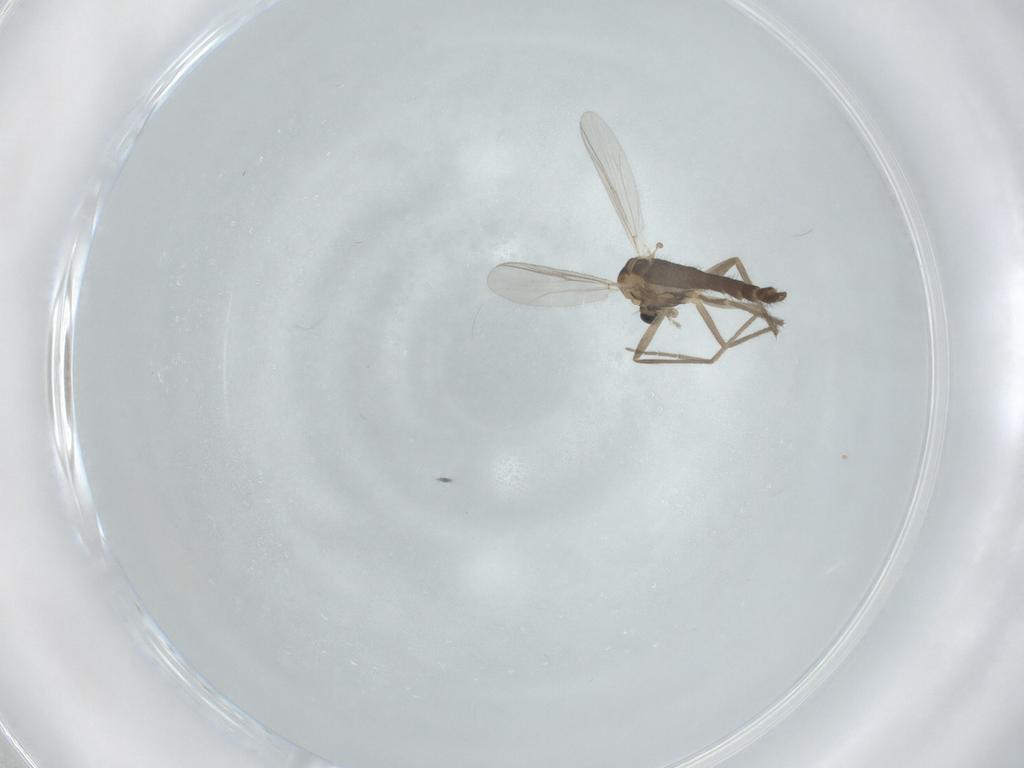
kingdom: Animalia
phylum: Arthropoda
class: Insecta
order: Diptera
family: Chironomidae
